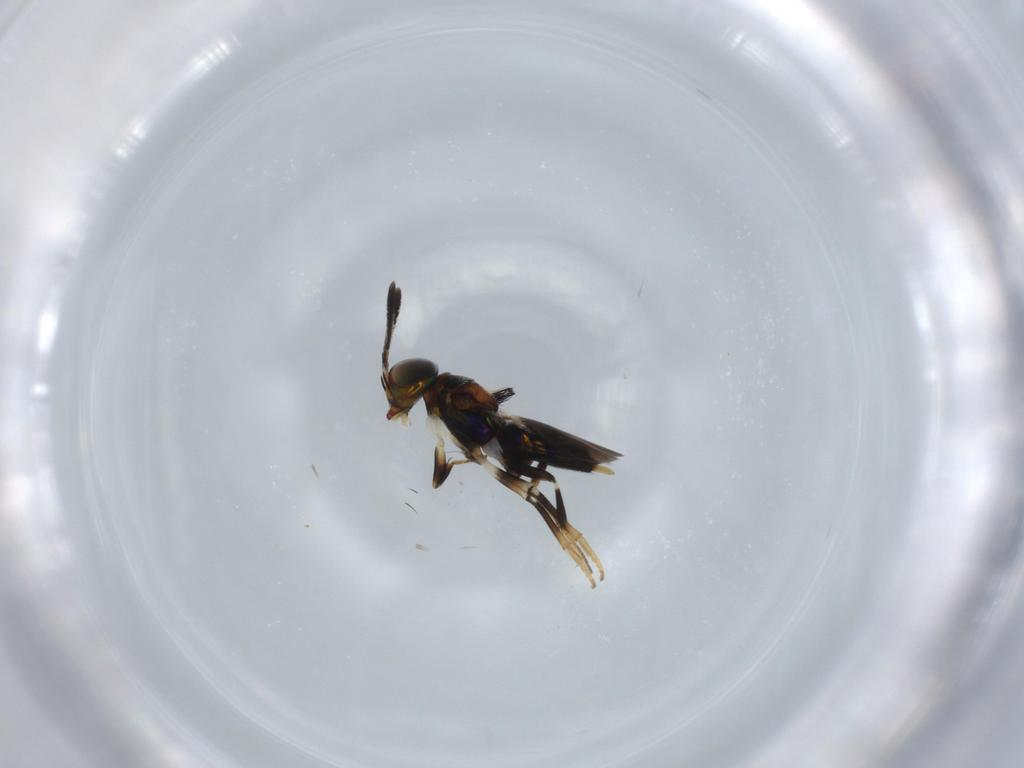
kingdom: Animalia
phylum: Arthropoda
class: Insecta
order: Hymenoptera
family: Encyrtidae
